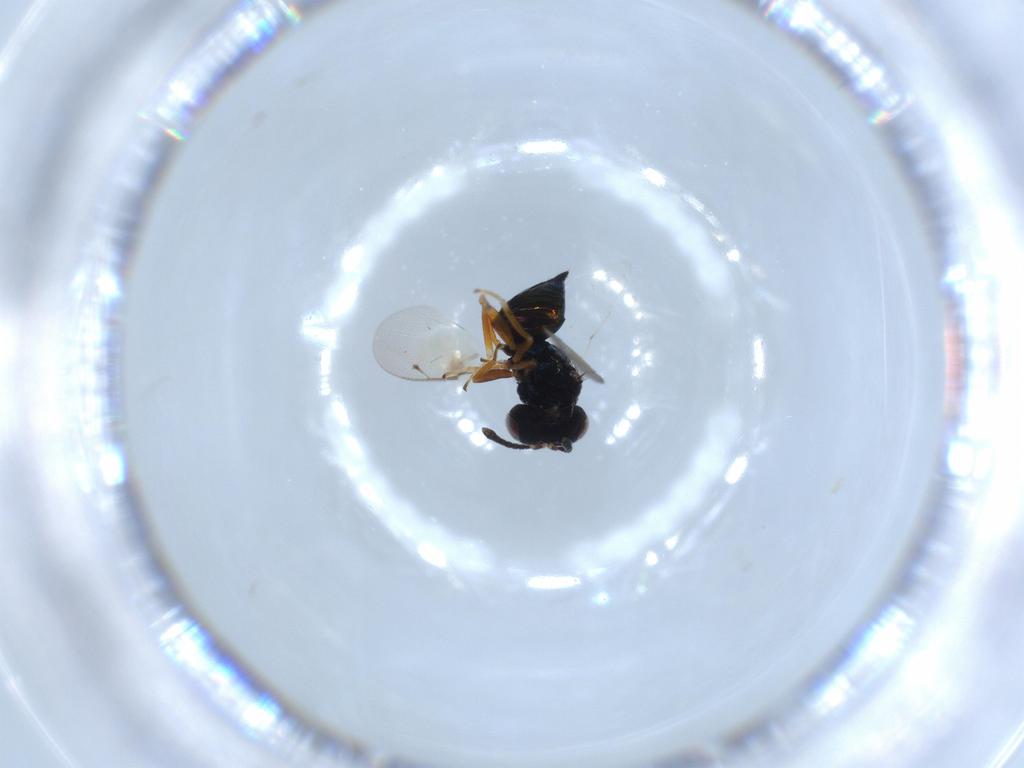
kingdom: Animalia
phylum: Arthropoda
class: Insecta
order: Hymenoptera
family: Pteromalidae
